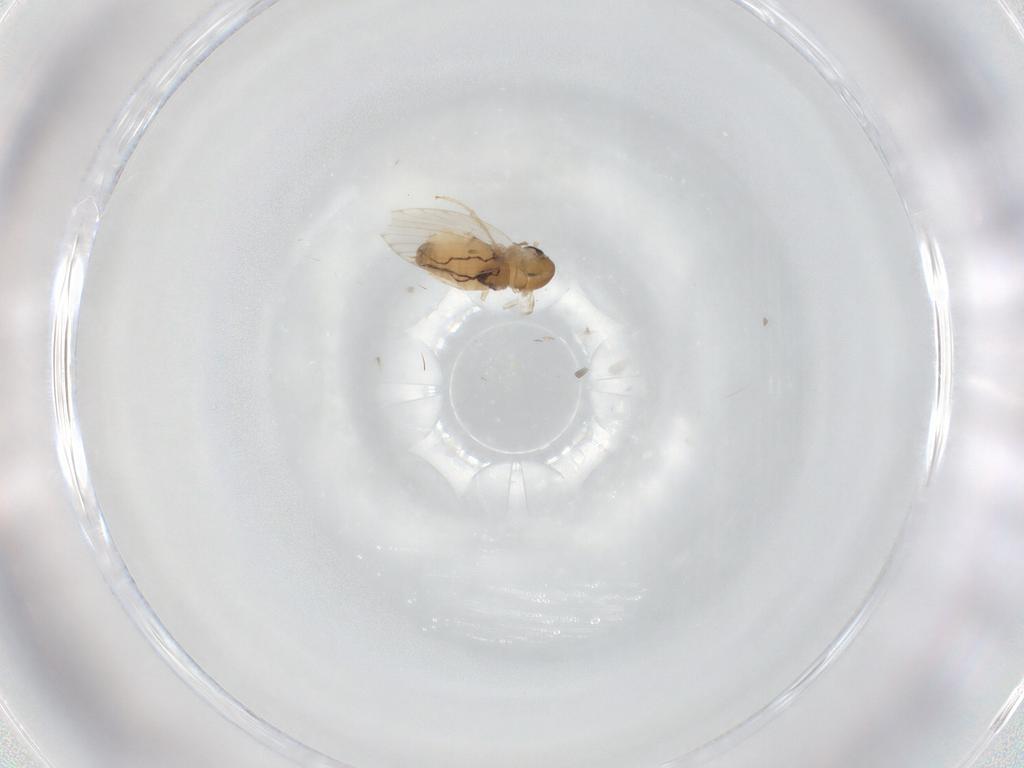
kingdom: Animalia
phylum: Arthropoda
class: Insecta
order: Diptera
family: Psychodidae
